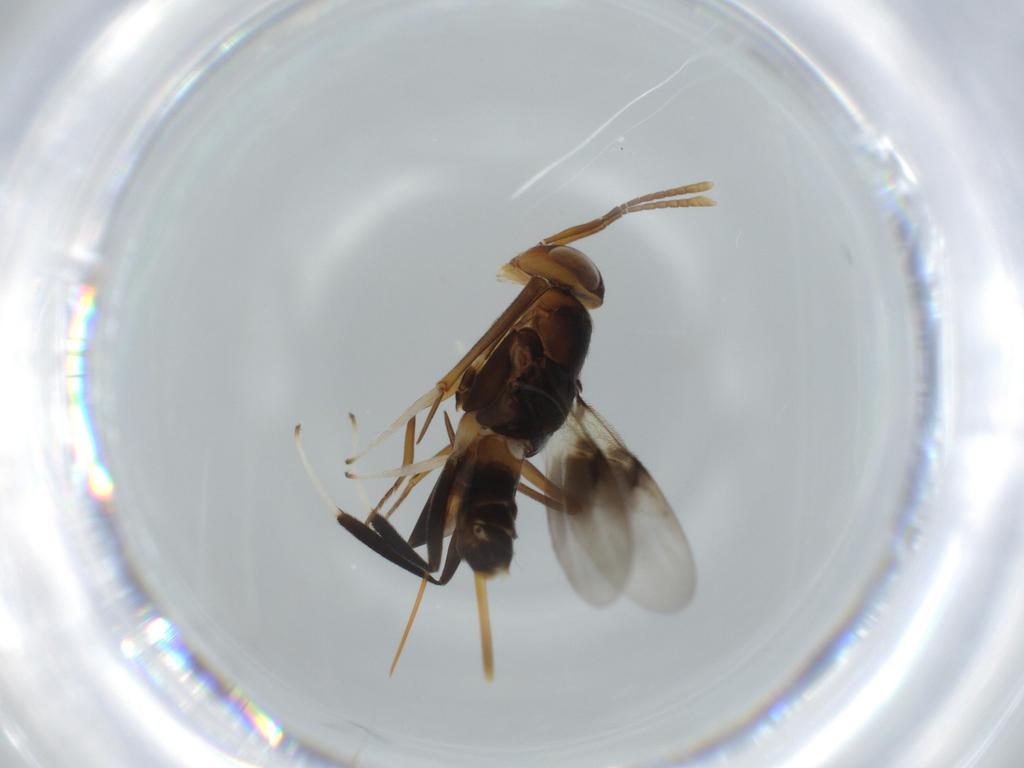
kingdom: Animalia
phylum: Arthropoda
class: Insecta
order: Hymenoptera
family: Encyrtidae
